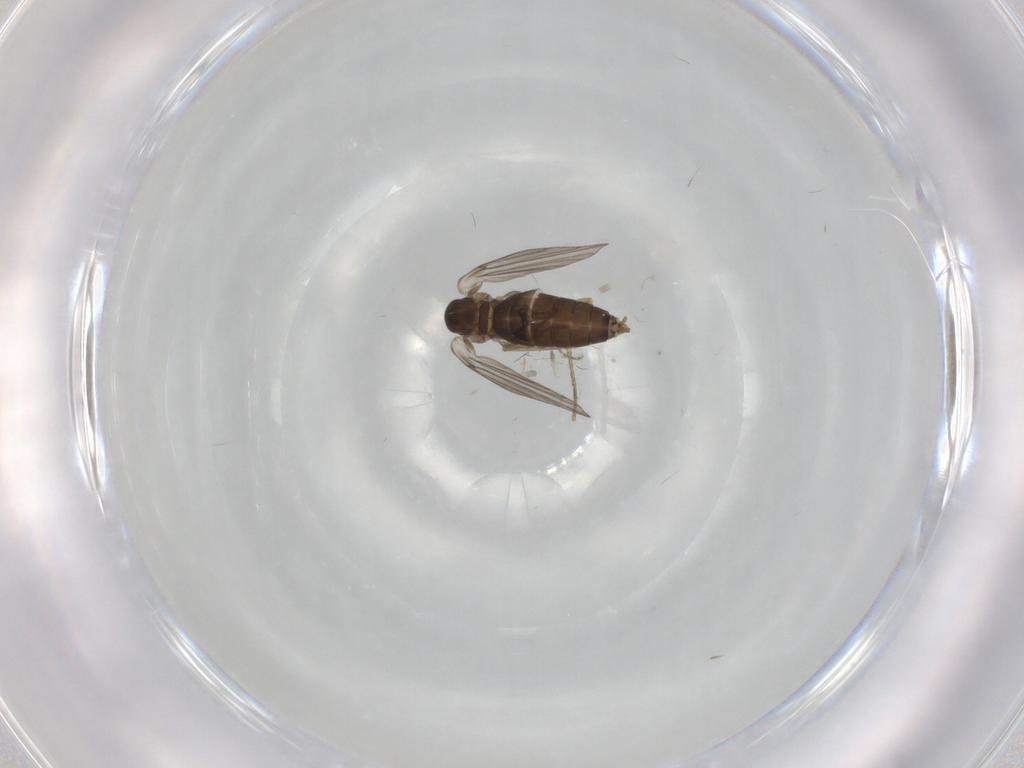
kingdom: Animalia
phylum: Arthropoda
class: Insecta
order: Diptera
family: Psychodidae
